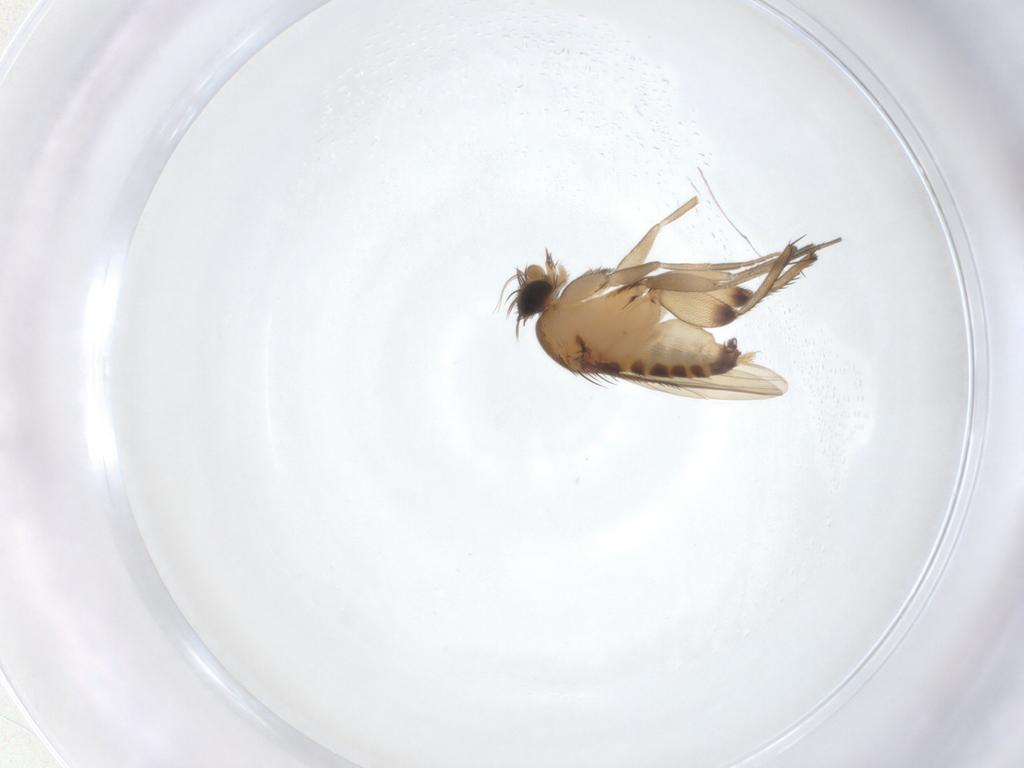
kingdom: Animalia
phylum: Arthropoda
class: Insecta
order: Diptera
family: Phoridae
